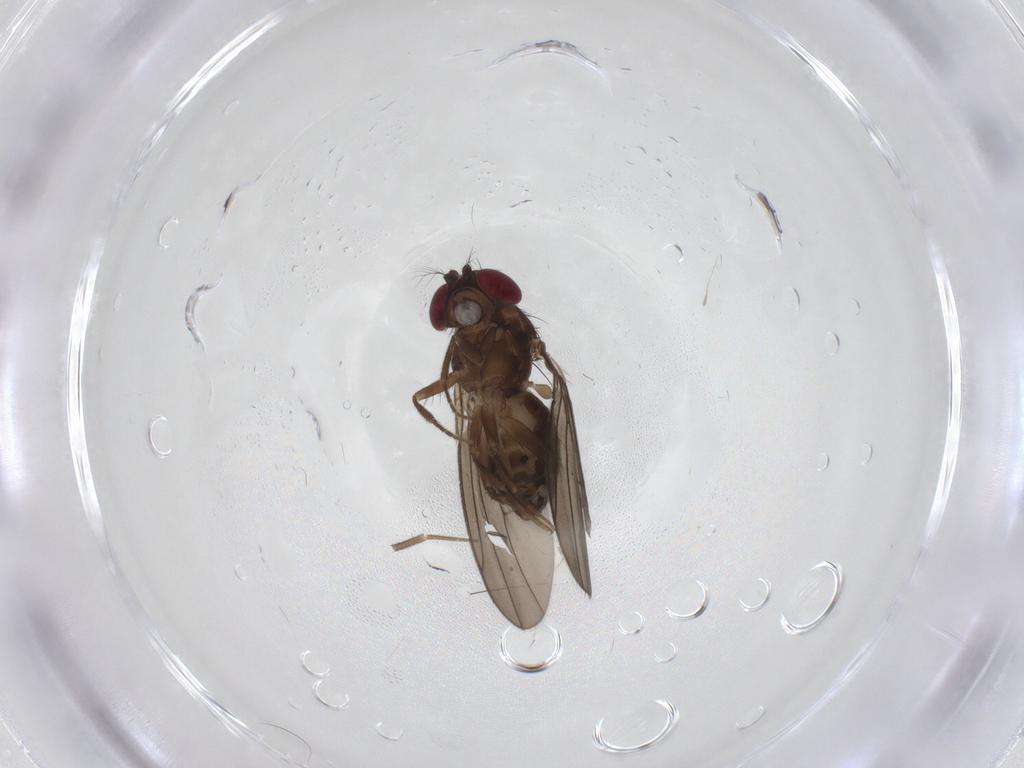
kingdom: Animalia
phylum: Arthropoda
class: Insecta
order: Diptera
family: Drosophilidae
